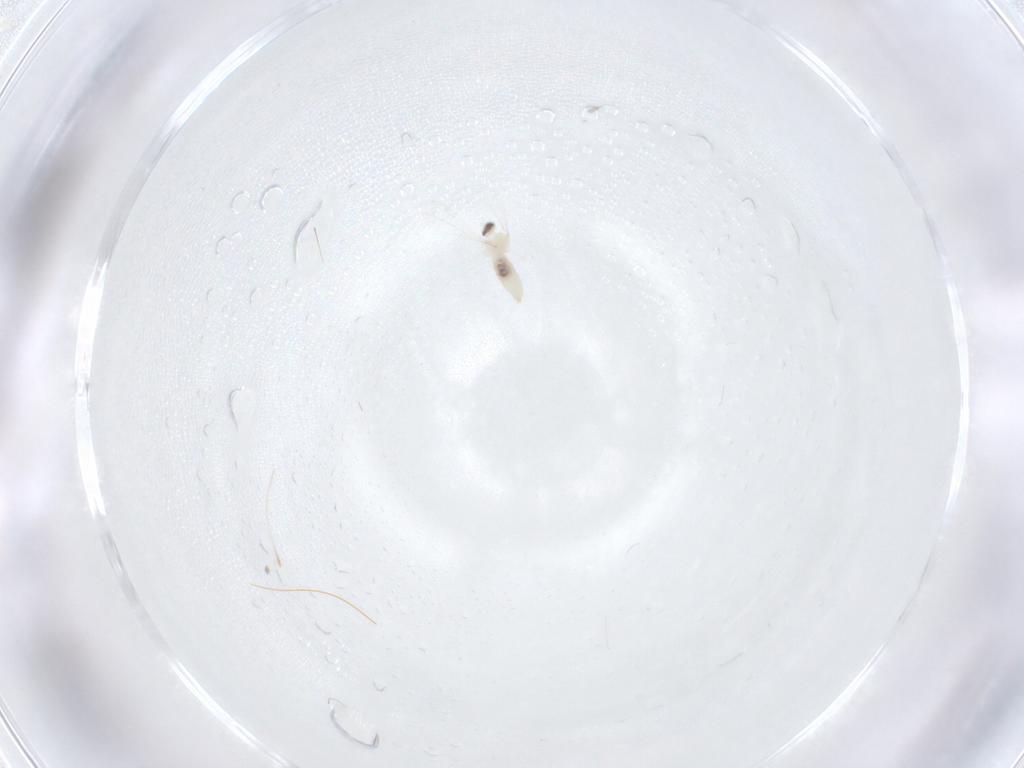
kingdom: Animalia
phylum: Arthropoda
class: Insecta
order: Diptera
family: Cecidomyiidae
